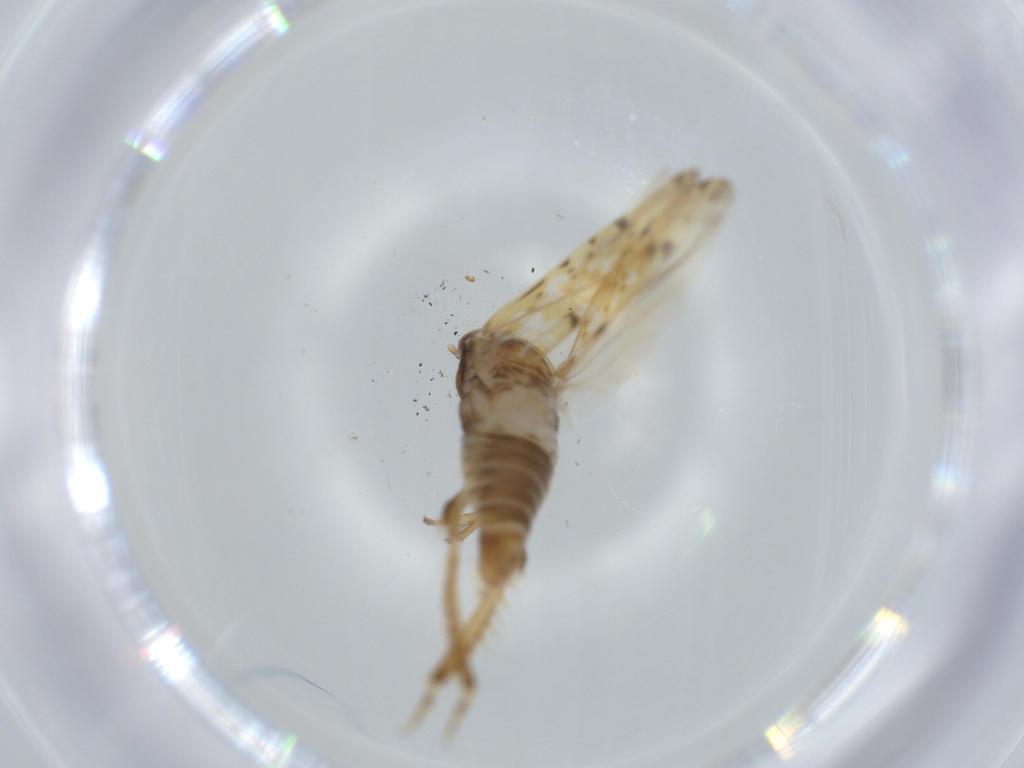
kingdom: Animalia
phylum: Arthropoda
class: Insecta
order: Hemiptera
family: Cicadellidae
